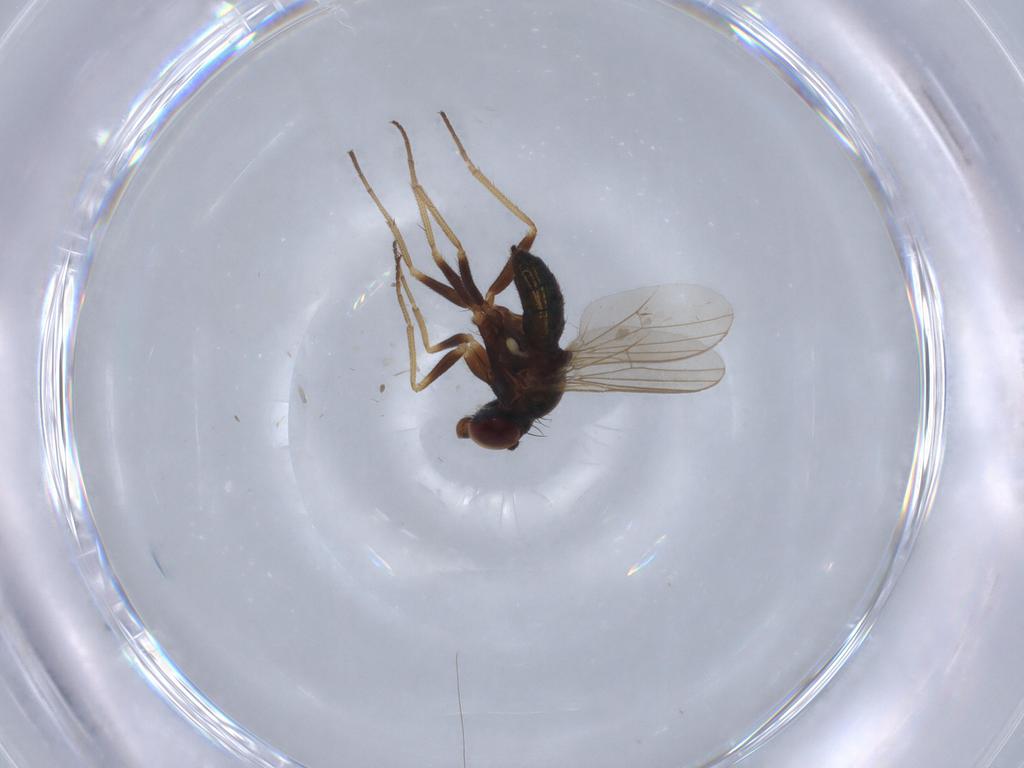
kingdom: Animalia
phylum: Arthropoda
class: Insecta
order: Diptera
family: Dolichopodidae
